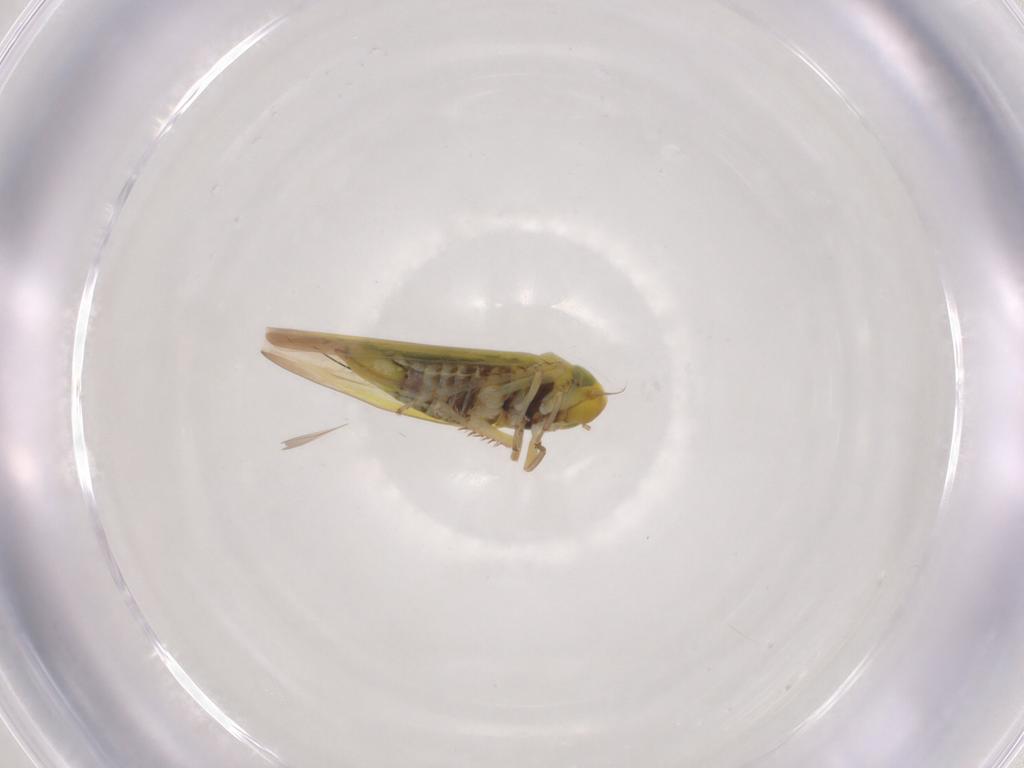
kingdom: Animalia
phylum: Arthropoda
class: Insecta
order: Hemiptera
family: Cicadellidae
